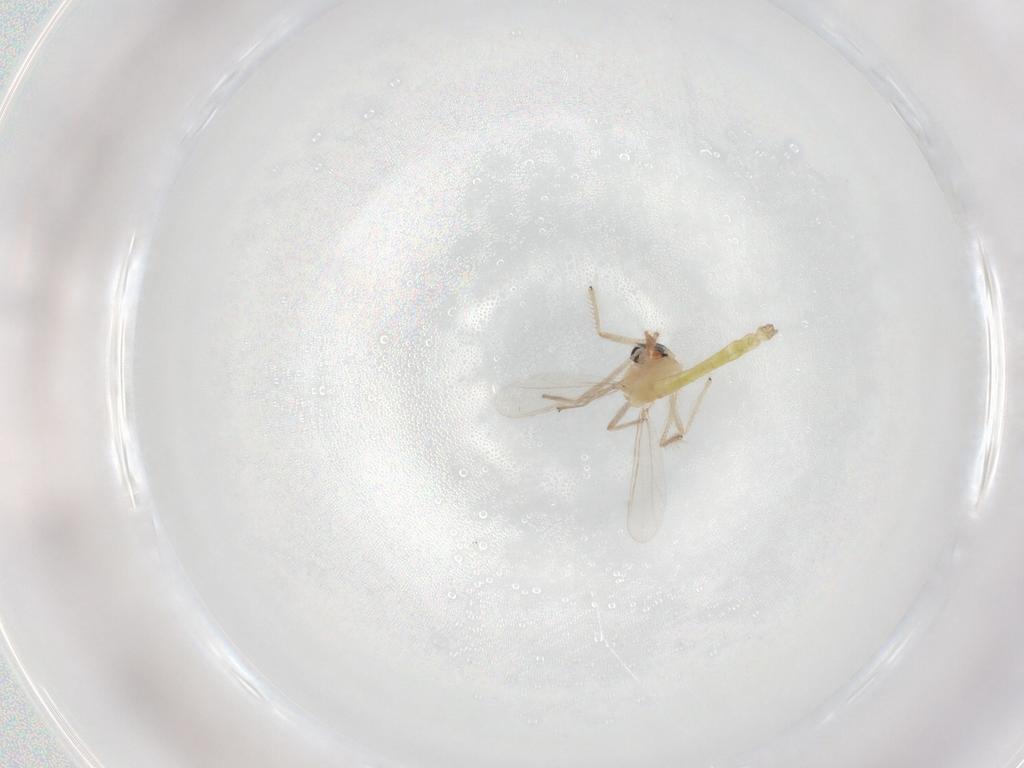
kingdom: Animalia
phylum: Arthropoda
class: Insecta
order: Diptera
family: Chironomidae
